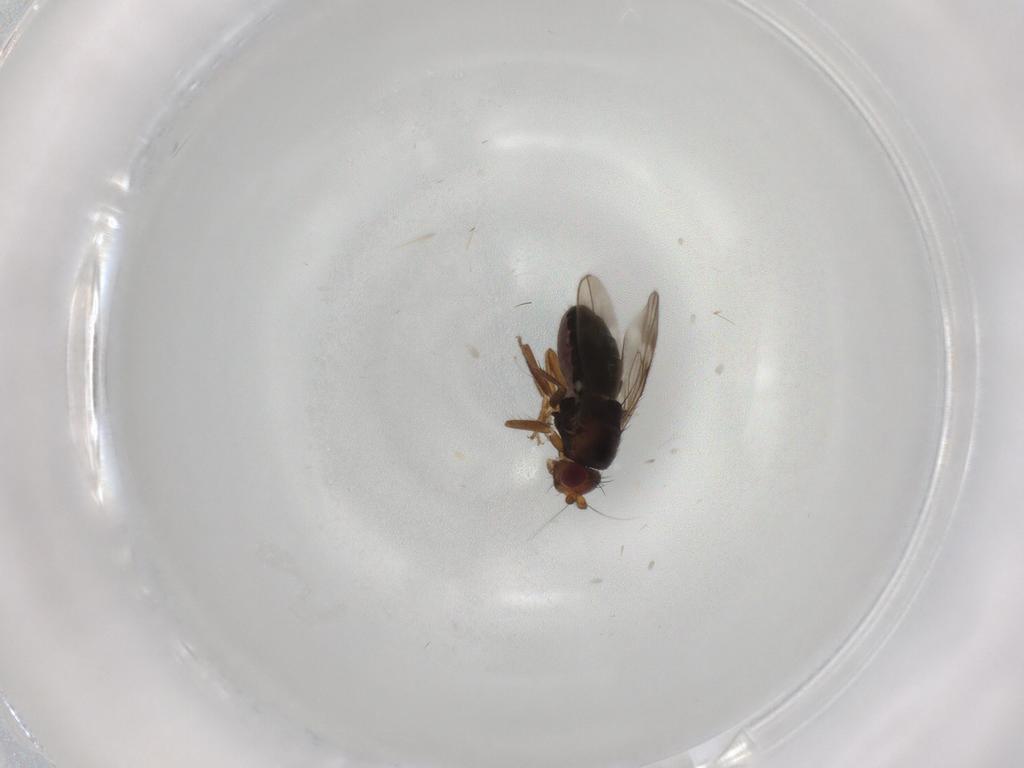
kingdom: Animalia
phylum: Arthropoda
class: Insecta
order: Diptera
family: Sphaeroceridae
